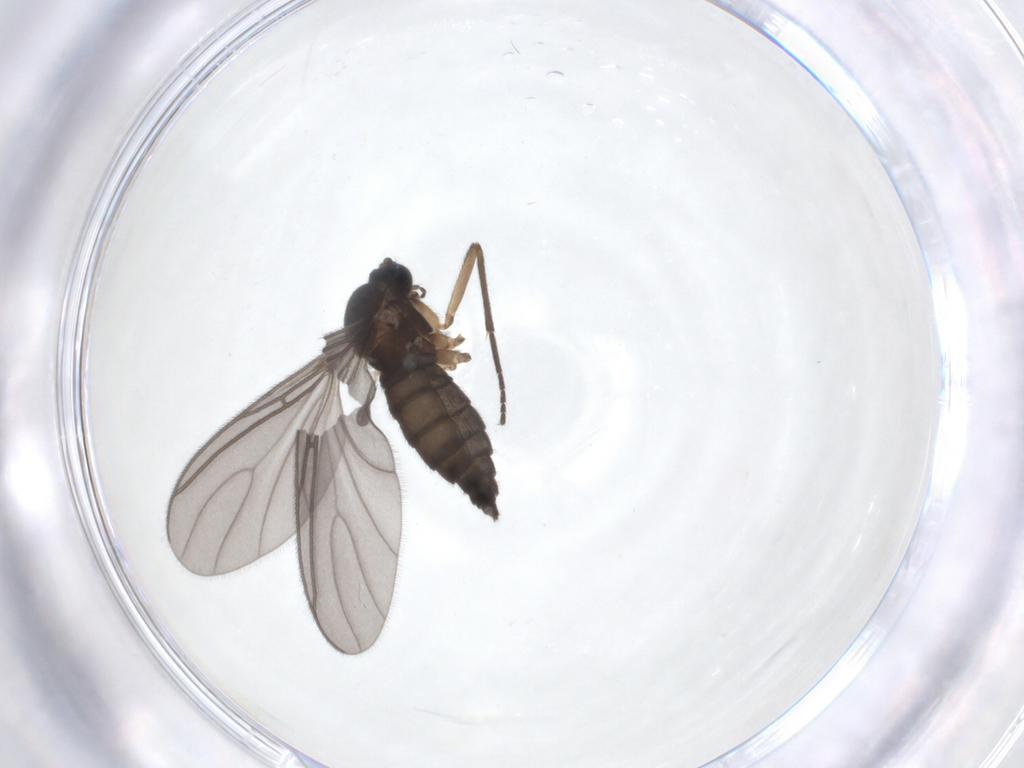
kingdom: Animalia
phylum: Arthropoda
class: Insecta
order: Diptera
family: Sciaridae
